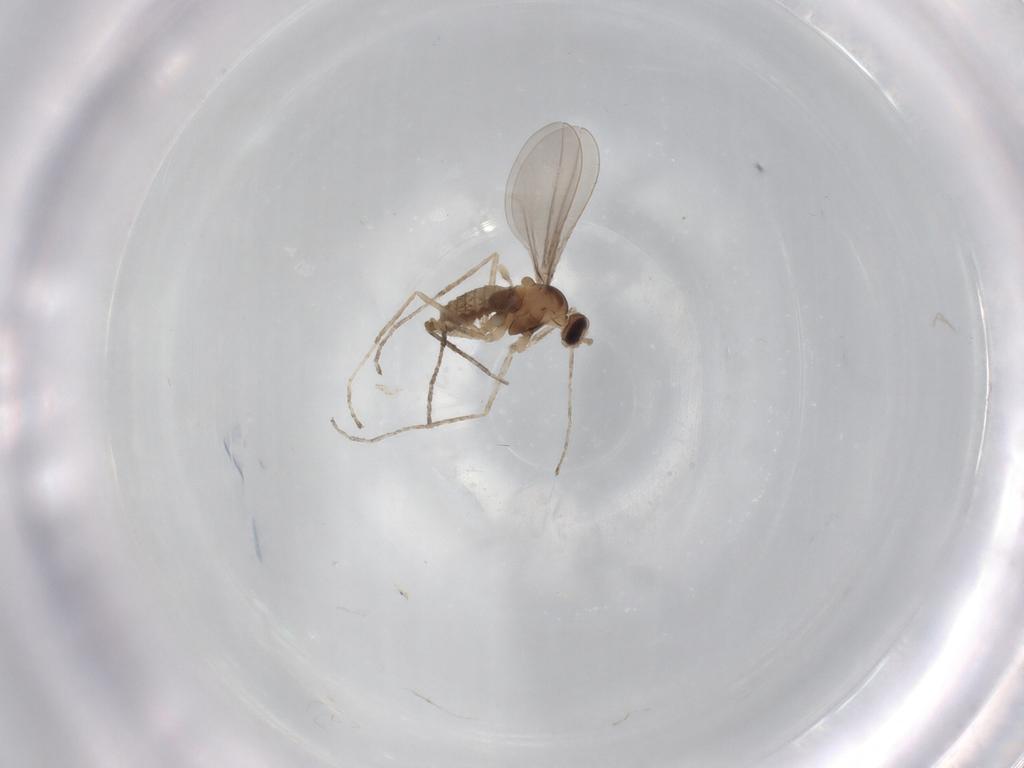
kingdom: Animalia
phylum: Arthropoda
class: Insecta
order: Diptera
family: Cecidomyiidae
